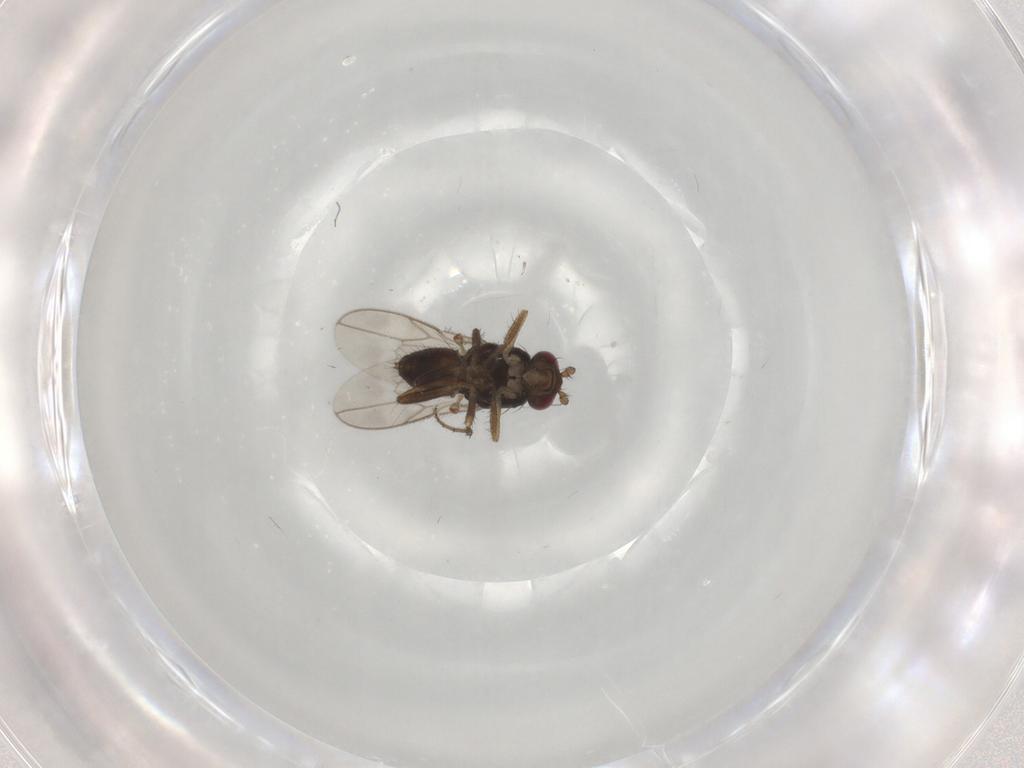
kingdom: Animalia
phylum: Arthropoda
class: Insecta
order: Diptera
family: Sphaeroceridae
